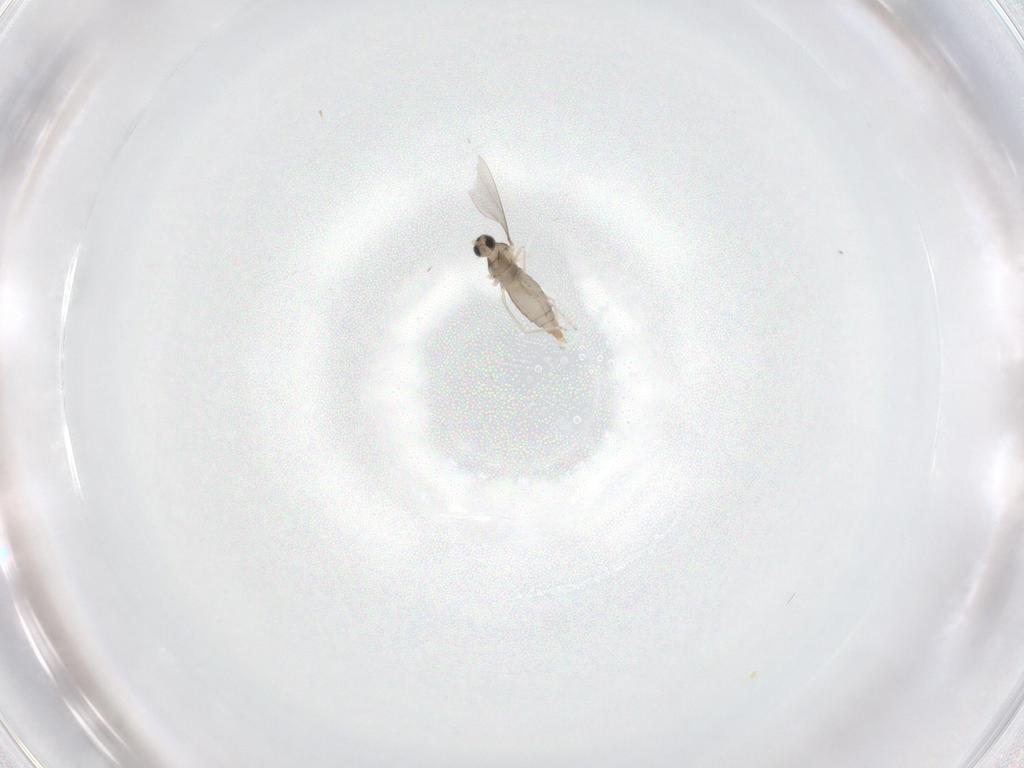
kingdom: Animalia
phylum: Arthropoda
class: Insecta
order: Diptera
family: Cecidomyiidae
